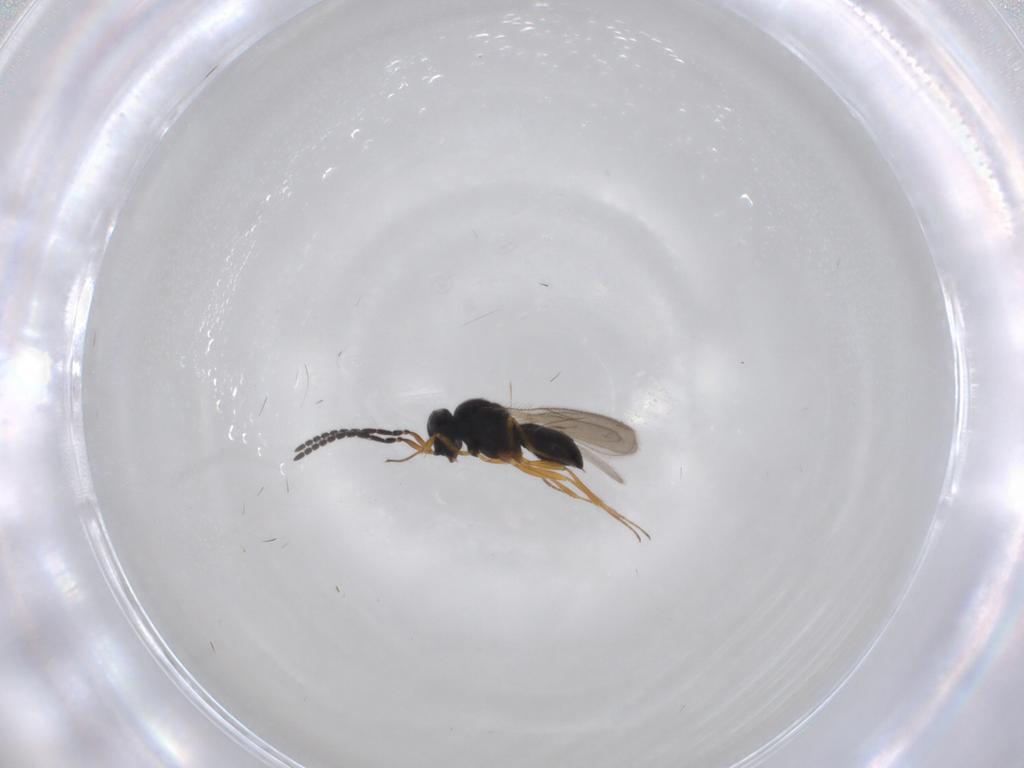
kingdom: Animalia
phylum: Arthropoda
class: Insecta
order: Hymenoptera
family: Scelionidae
